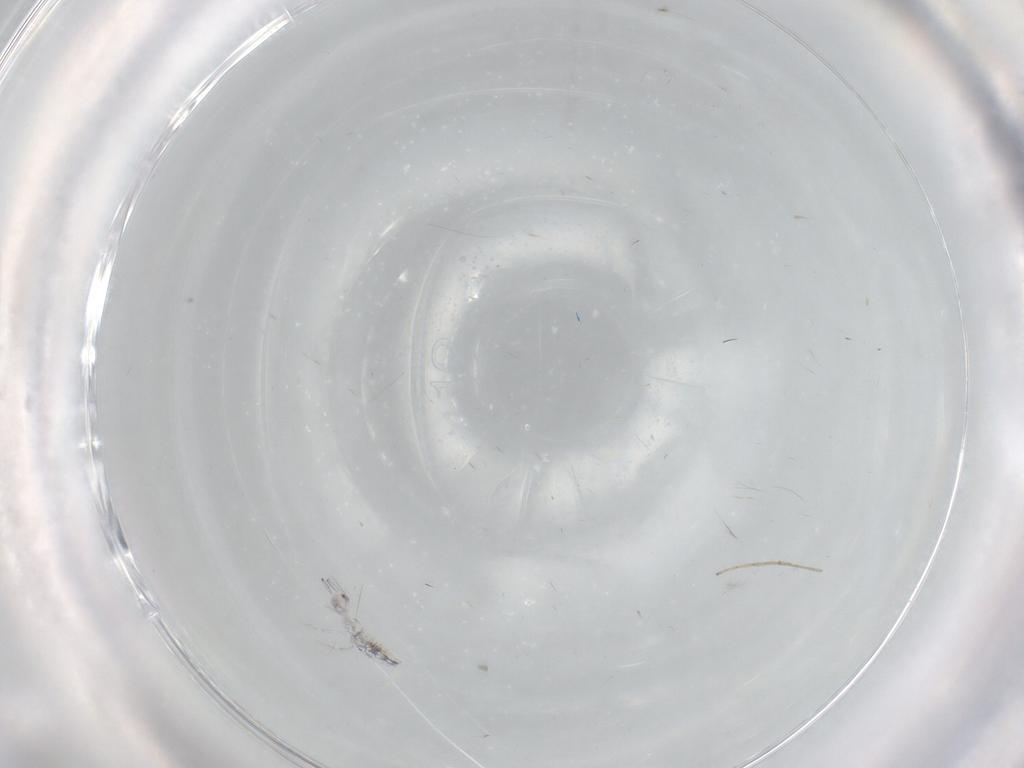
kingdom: Animalia
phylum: Arthropoda
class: Insecta
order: Diptera
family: Chironomidae
